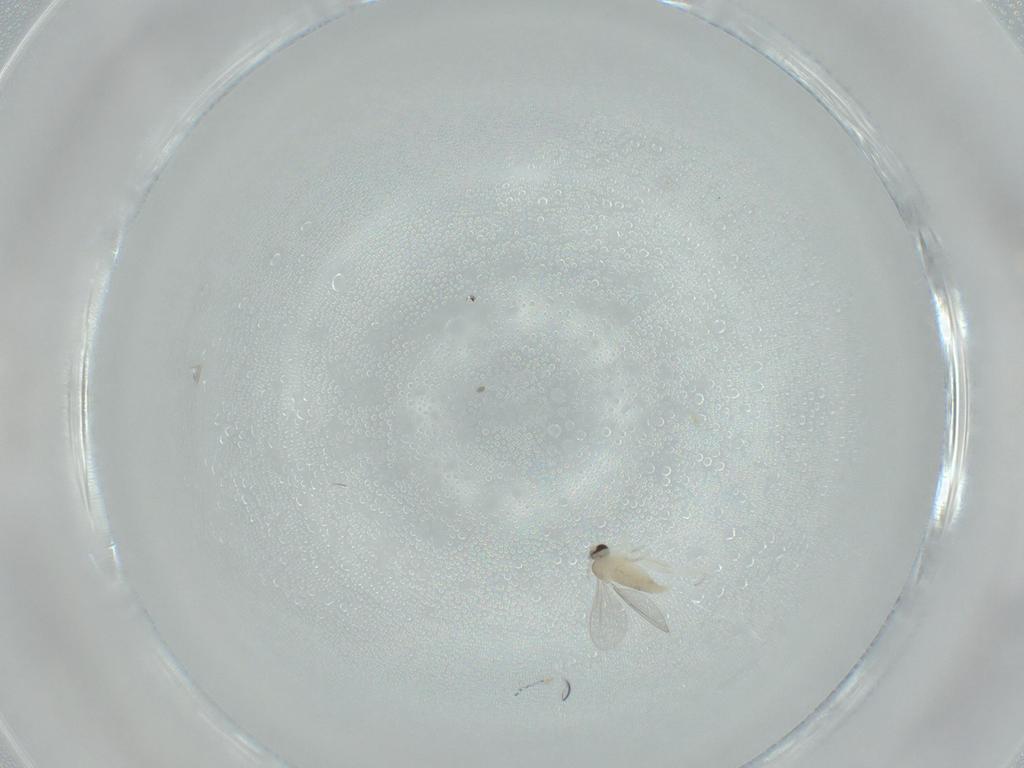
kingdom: Animalia
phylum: Arthropoda
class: Insecta
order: Diptera
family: Cecidomyiidae
